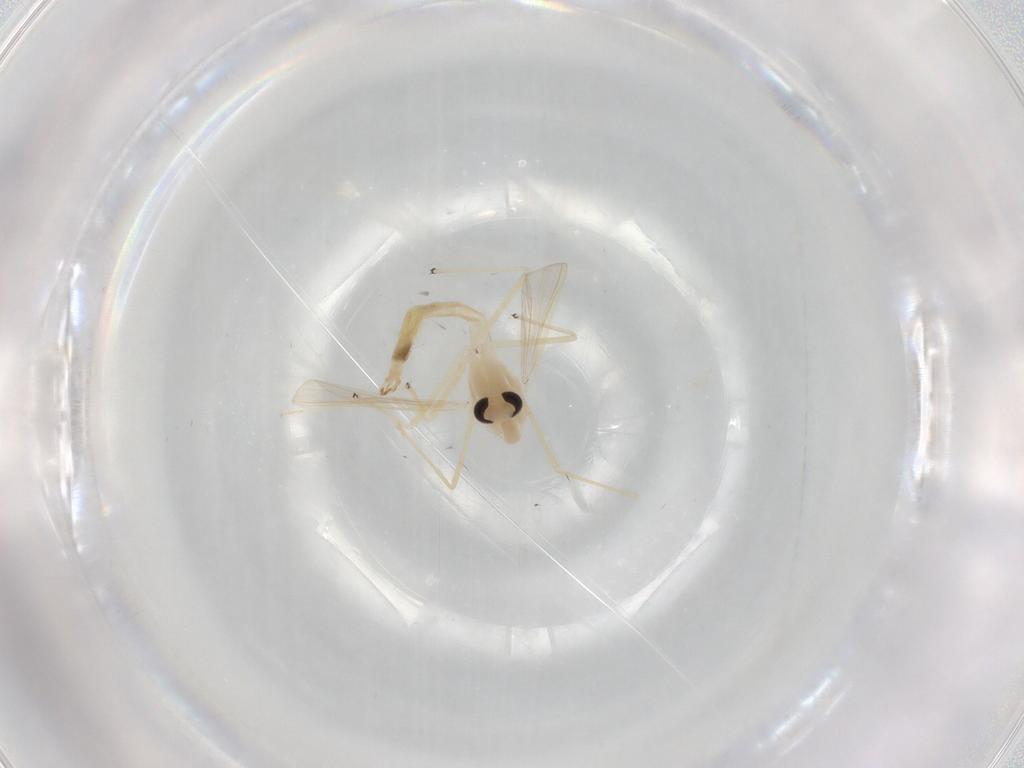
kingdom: Animalia
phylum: Arthropoda
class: Insecta
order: Diptera
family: Chironomidae
